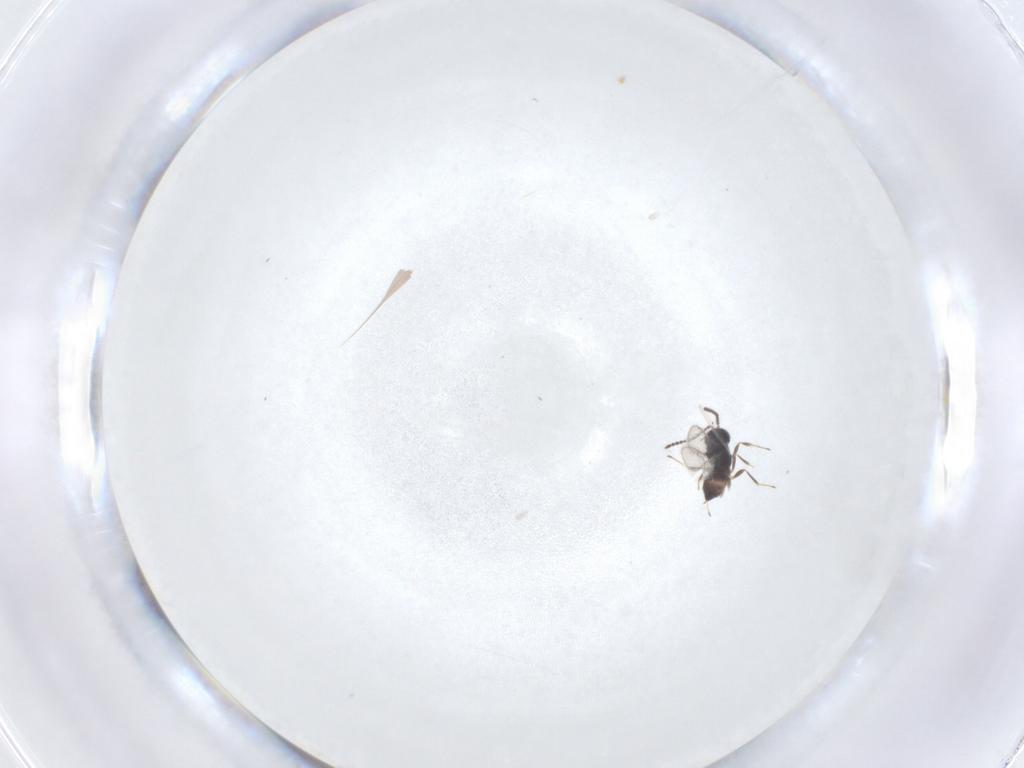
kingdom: Animalia
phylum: Arthropoda
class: Insecta
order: Hymenoptera
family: Scelionidae
